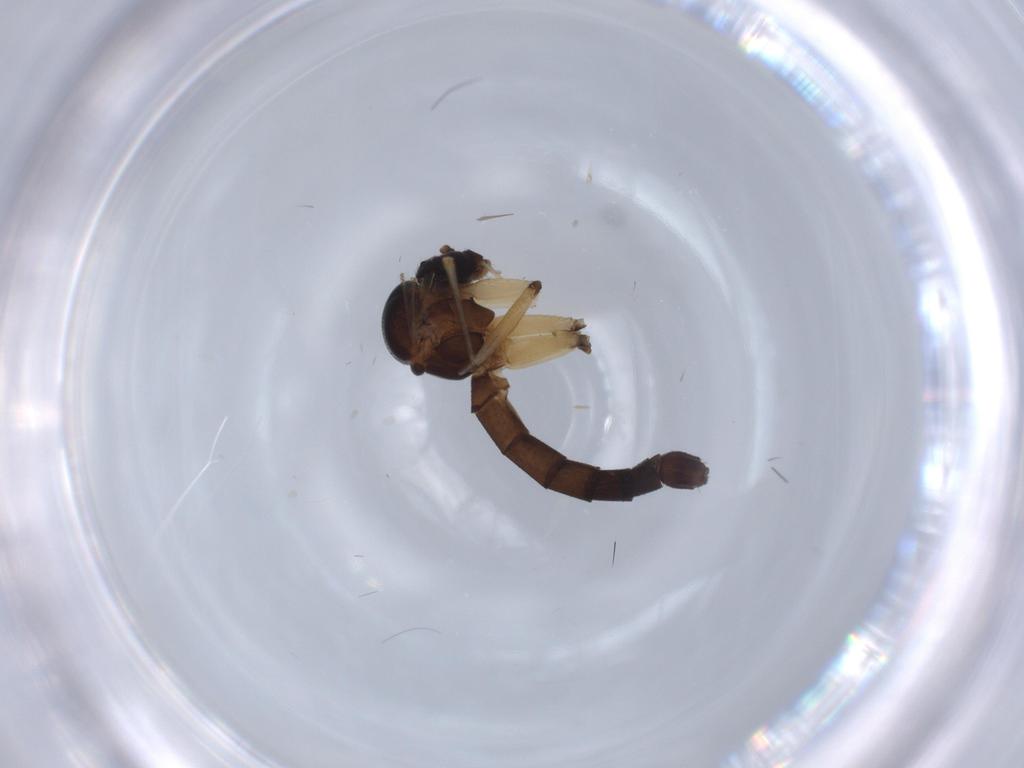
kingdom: Animalia
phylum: Arthropoda
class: Insecta
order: Diptera
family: Mycetophilidae
